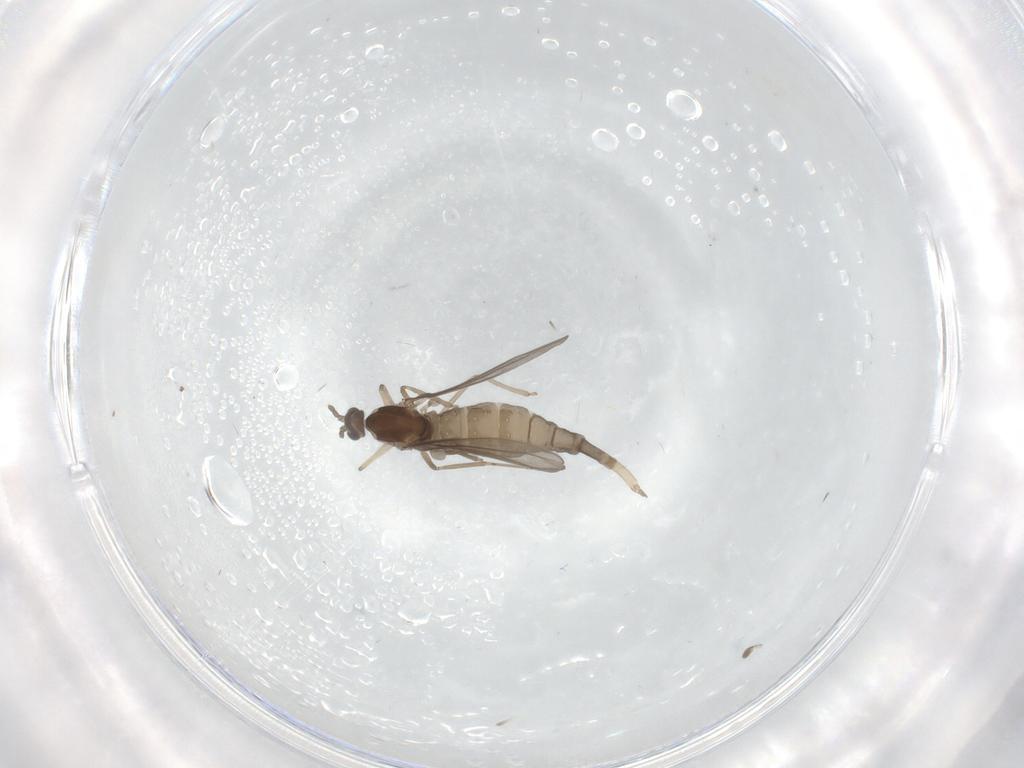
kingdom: Animalia
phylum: Arthropoda
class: Insecta
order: Diptera
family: Cecidomyiidae
